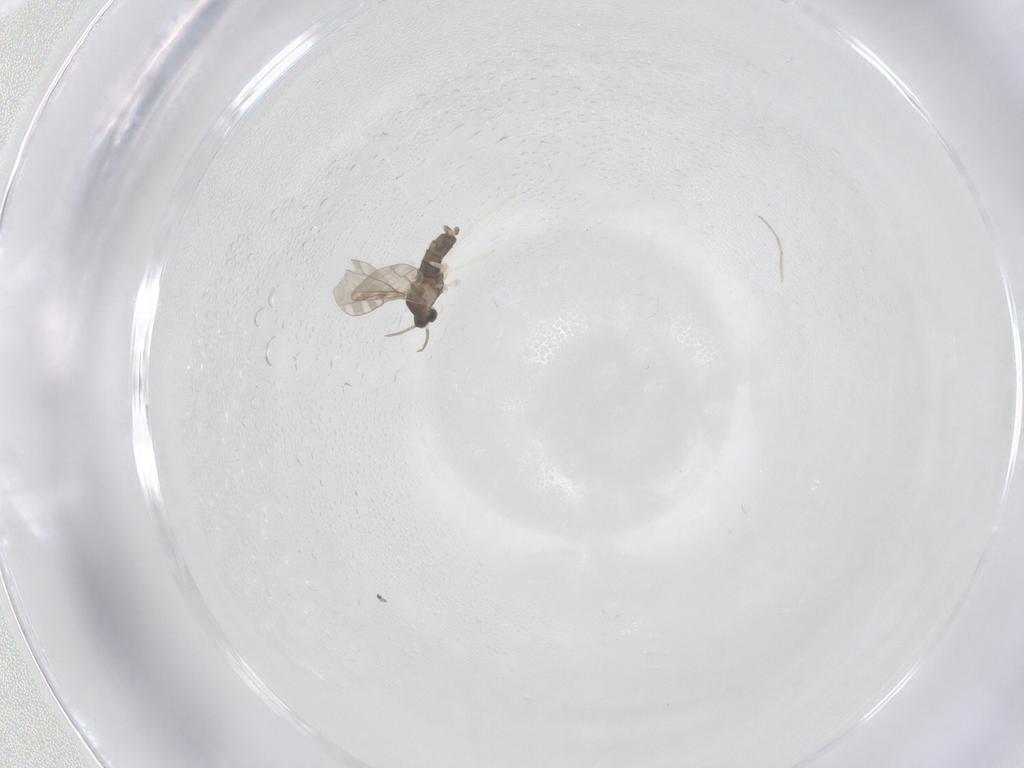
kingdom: Animalia
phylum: Arthropoda
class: Insecta
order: Diptera
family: Cecidomyiidae
